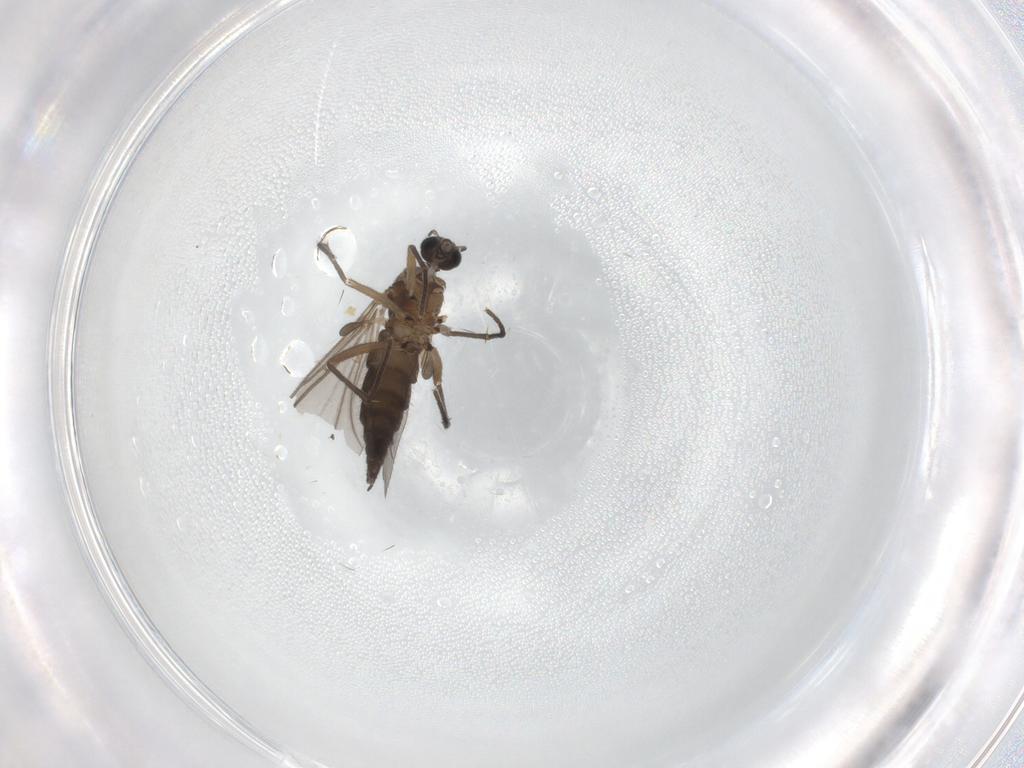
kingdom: Animalia
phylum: Arthropoda
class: Insecta
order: Diptera
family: Sciaridae
